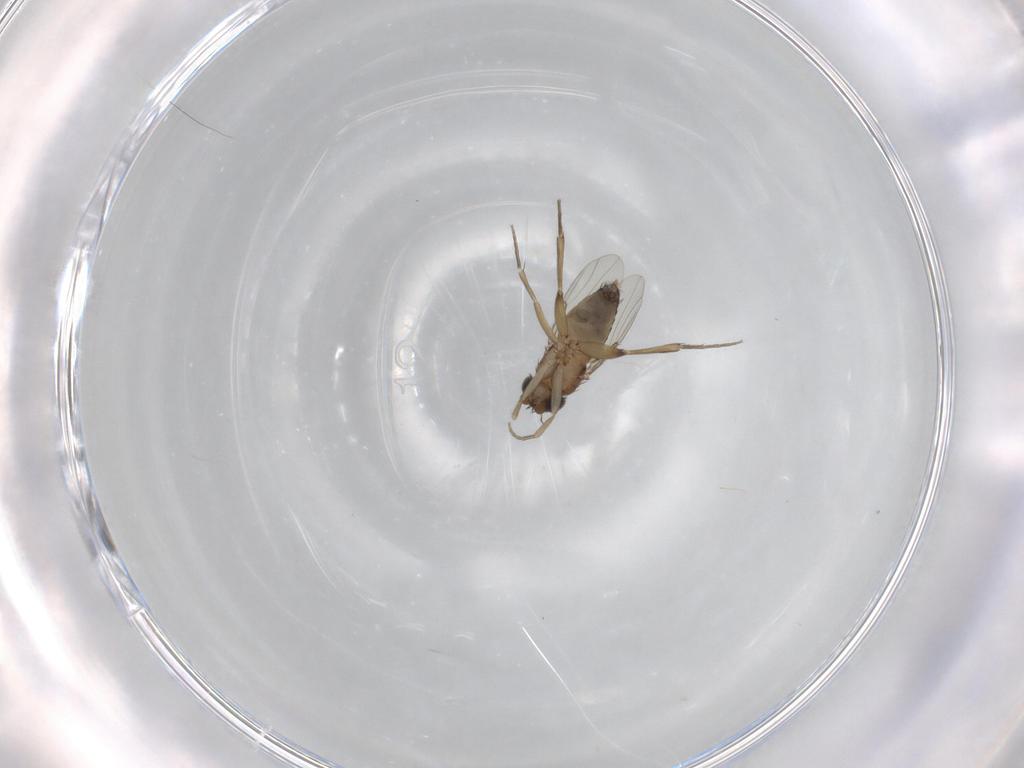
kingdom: Animalia
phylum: Arthropoda
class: Insecta
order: Diptera
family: Phoridae
